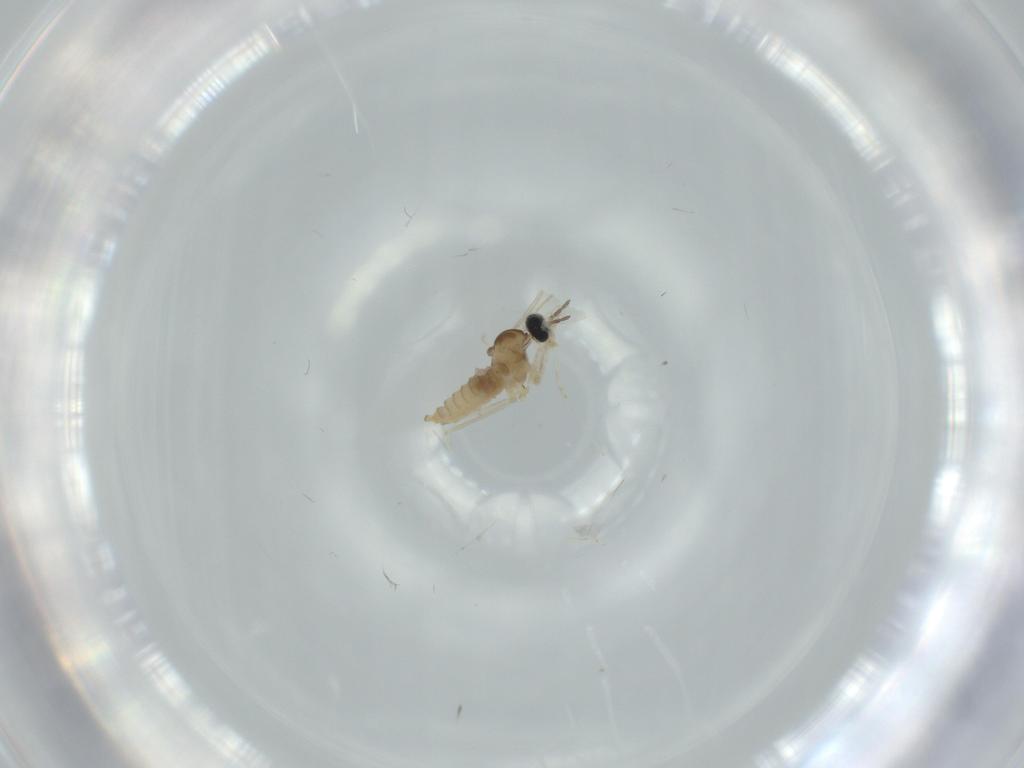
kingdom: Animalia
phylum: Arthropoda
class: Insecta
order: Diptera
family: Cecidomyiidae
